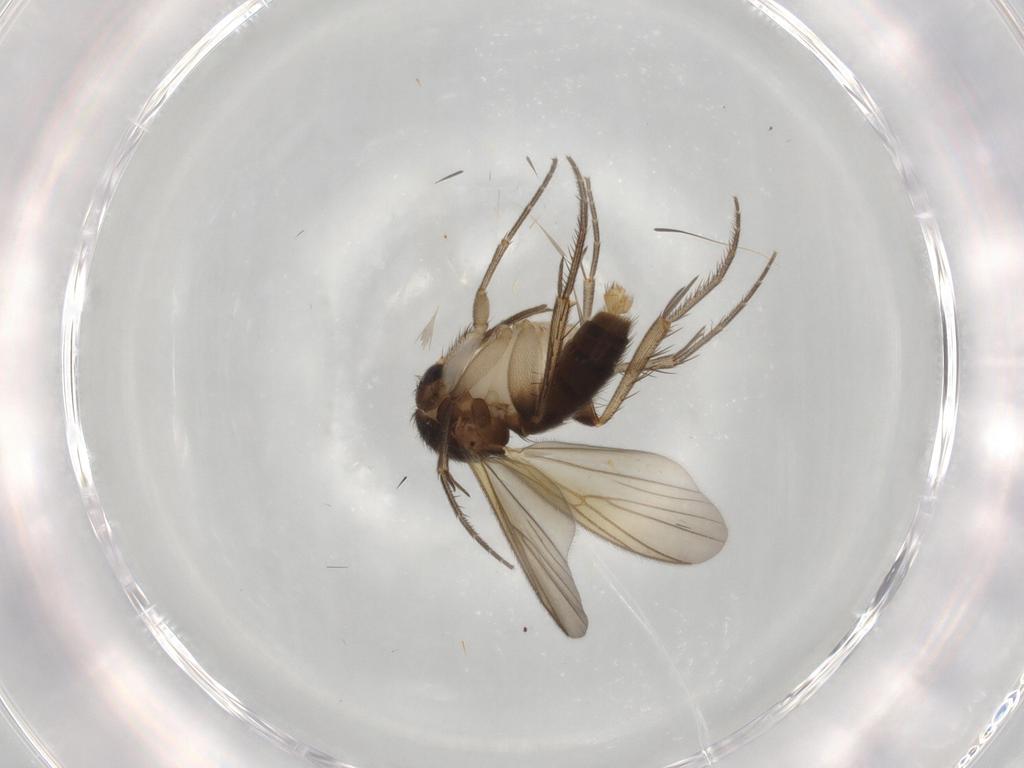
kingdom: Animalia
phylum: Arthropoda
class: Insecta
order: Diptera
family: Mycetophilidae
